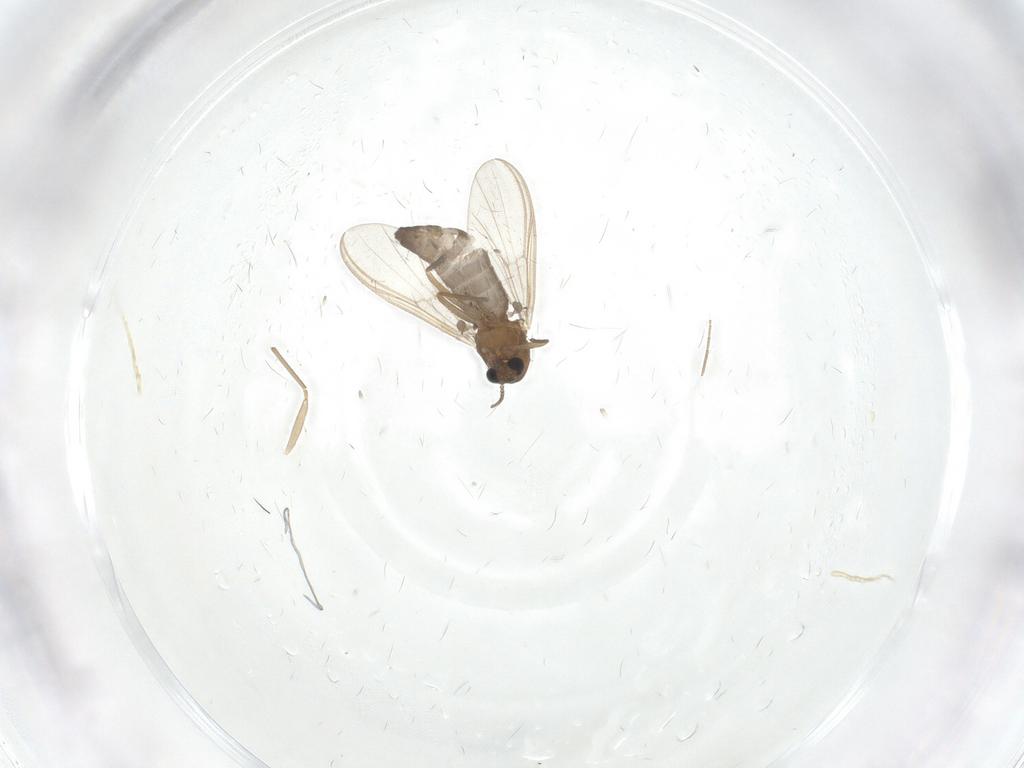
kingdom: Animalia
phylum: Arthropoda
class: Insecta
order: Diptera
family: Chironomidae
